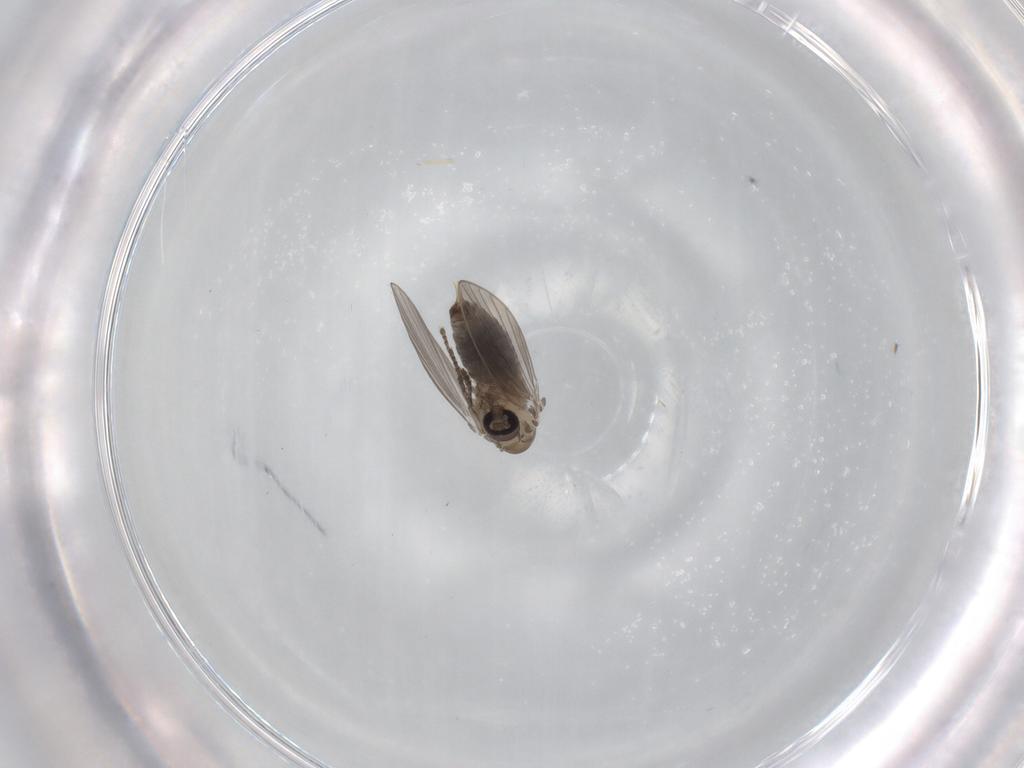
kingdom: Animalia
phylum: Arthropoda
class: Insecta
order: Diptera
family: Psychodidae
